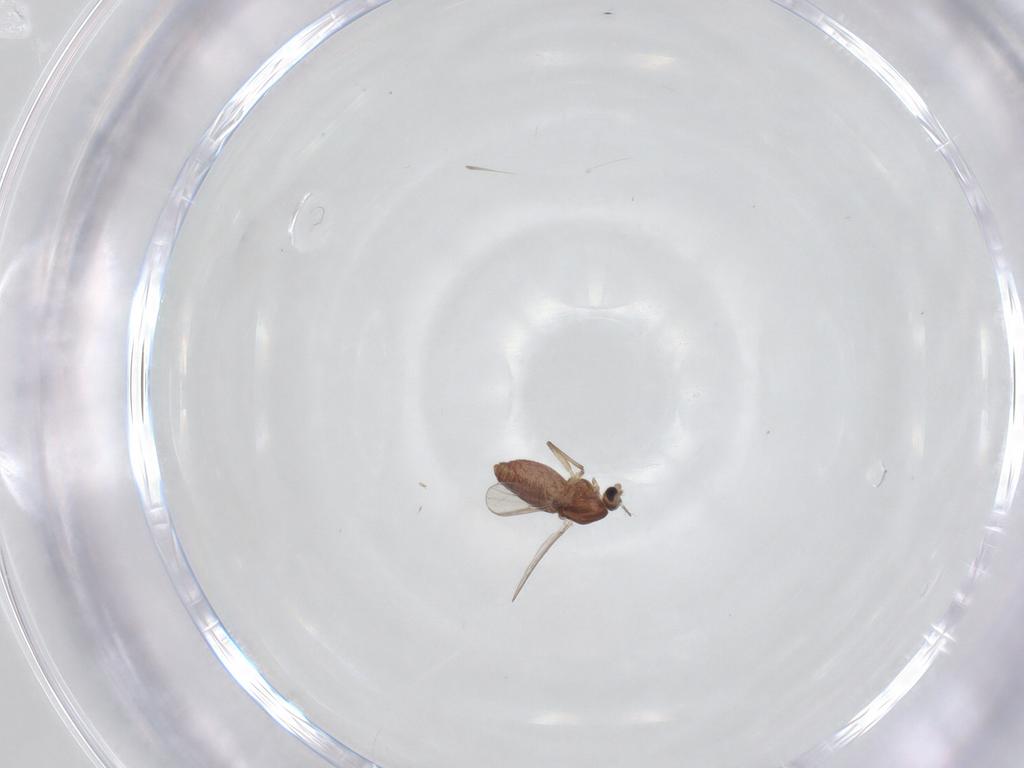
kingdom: Animalia
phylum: Arthropoda
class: Insecta
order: Diptera
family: Chironomidae
